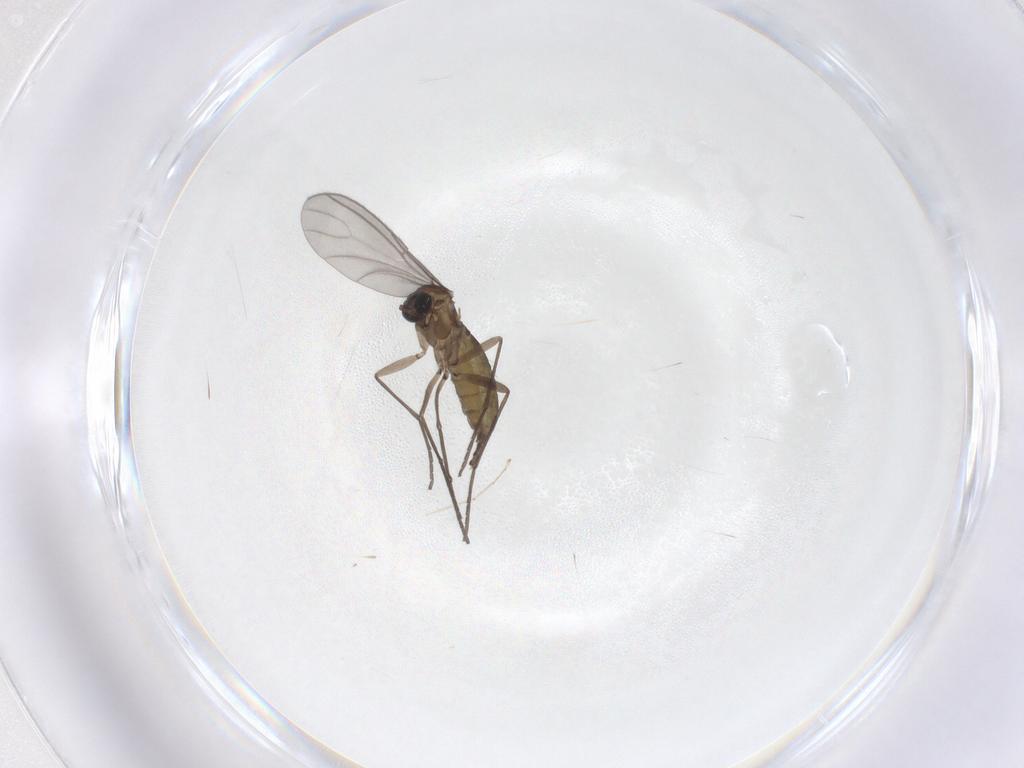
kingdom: Animalia
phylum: Arthropoda
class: Insecta
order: Diptera
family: Sciaridae
